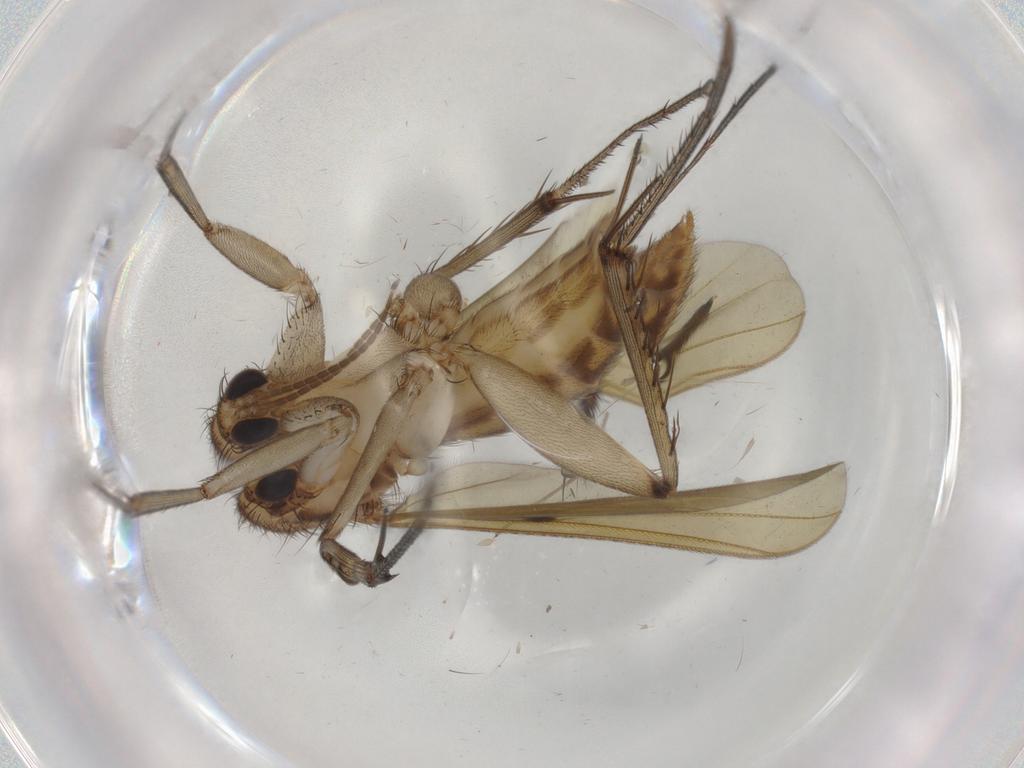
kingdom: Animalia
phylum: Arthropoda
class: Insecta
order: Diptera
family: Mycetophilidae
